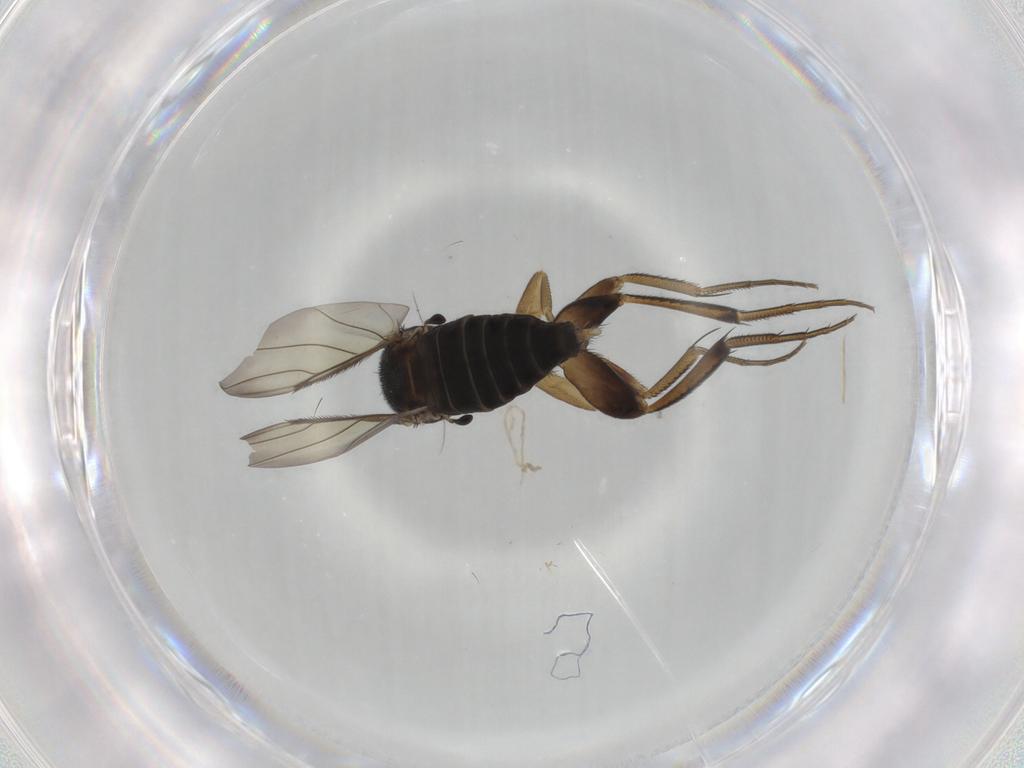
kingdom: Animalia
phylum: Arthropoda
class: Insecta
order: Diptera
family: Phoridae
